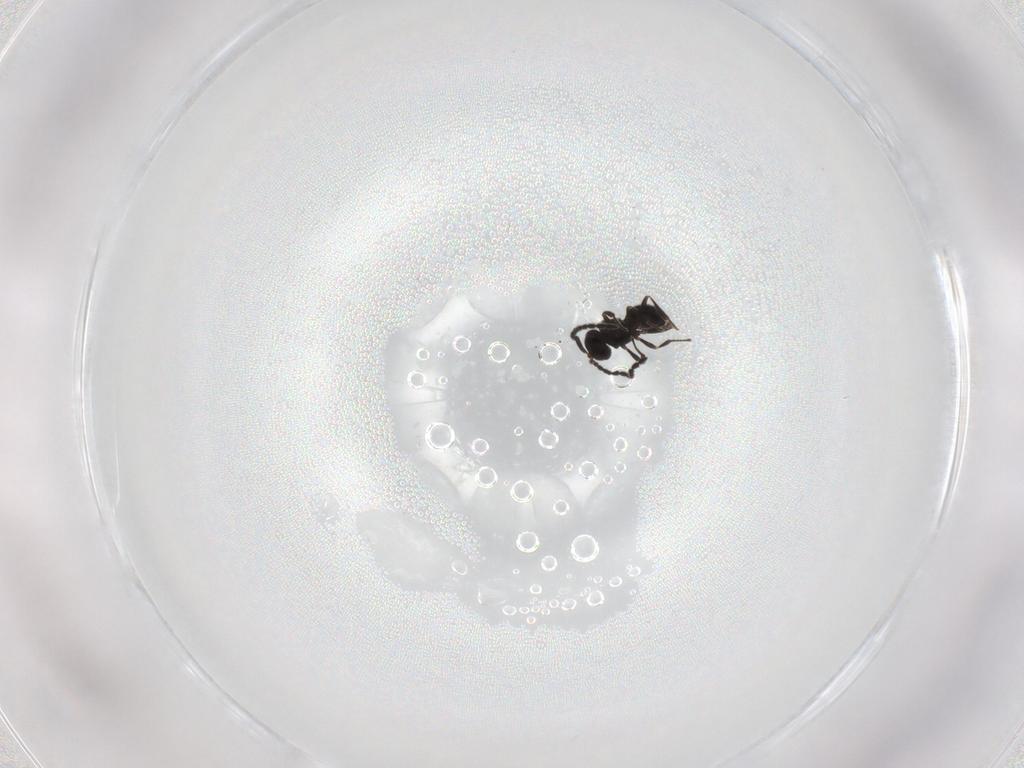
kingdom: Animalia
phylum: Arthropoda
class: Insecta
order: Hymenoptera
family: Scelionidae
